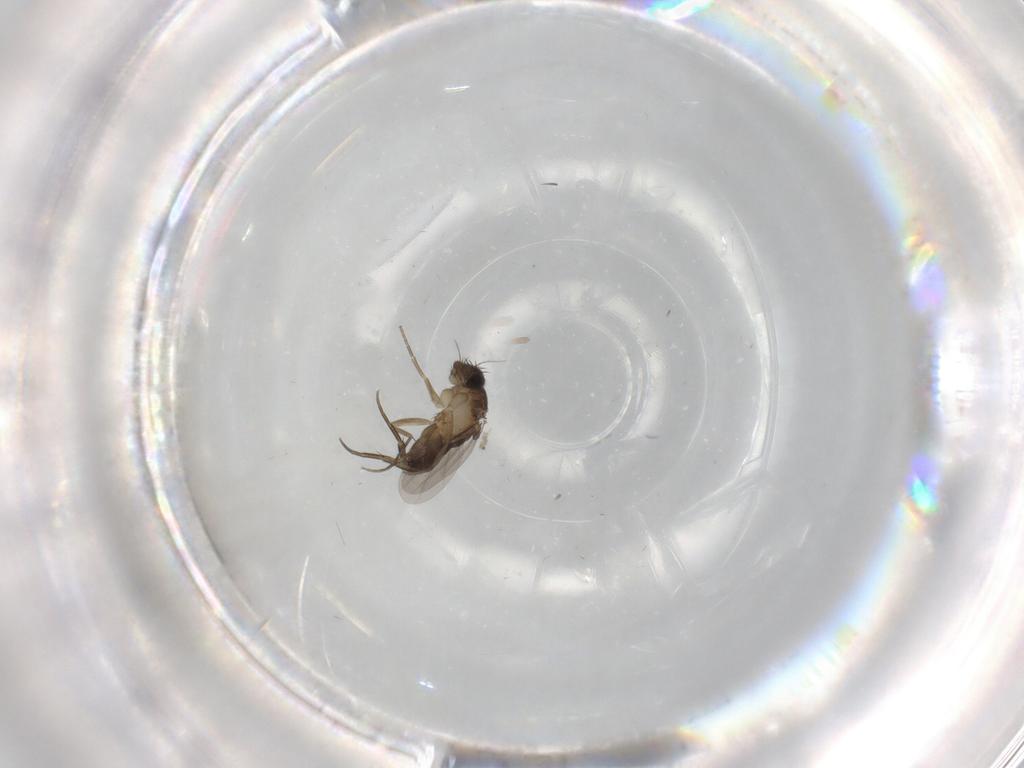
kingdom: Animalia
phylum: Arthropoda
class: Insecta
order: Diptera
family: Phoridae
